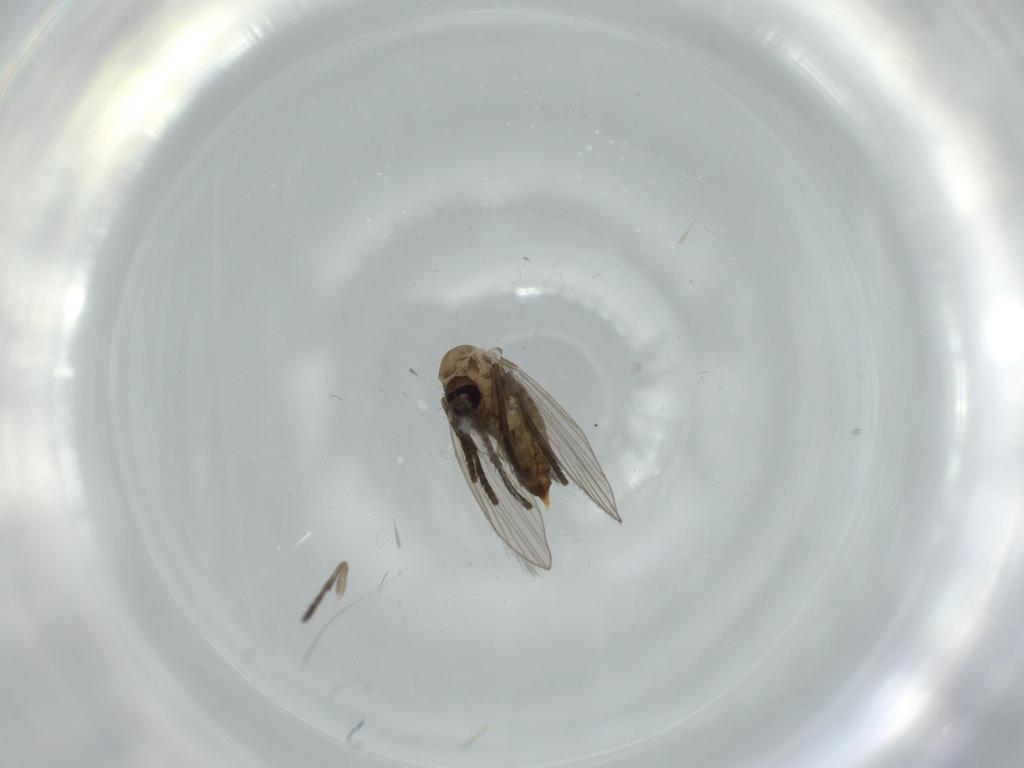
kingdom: Animalia
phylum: Arthropoda
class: Insecta
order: Diptera
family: Psychodidae
